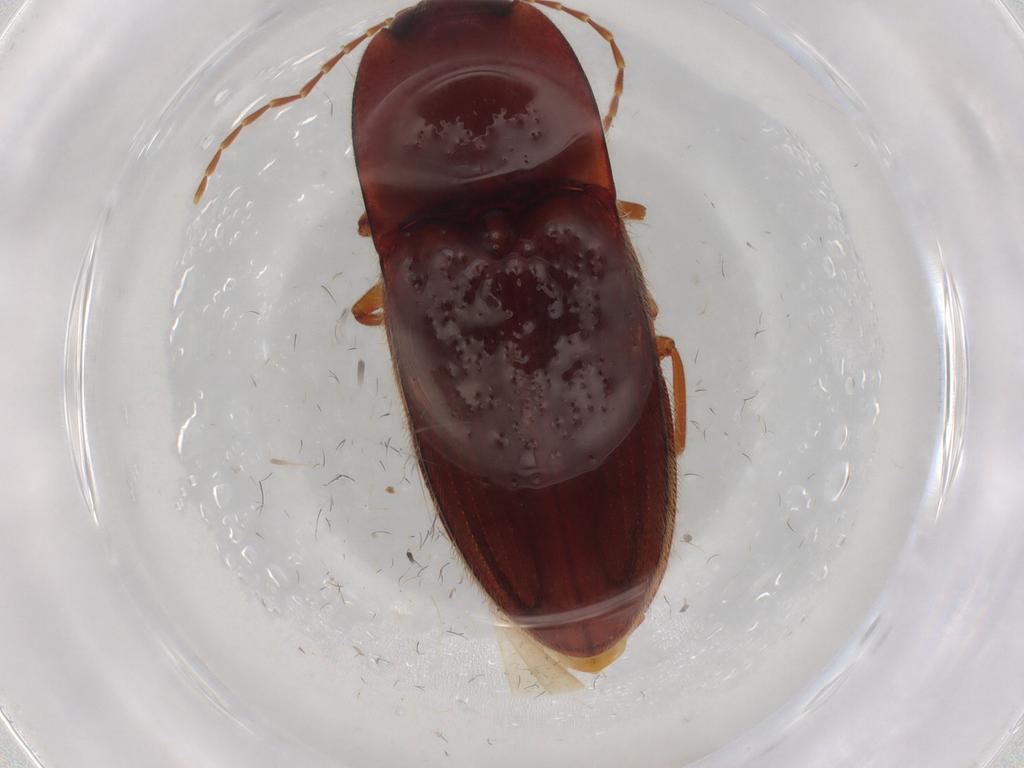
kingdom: Animalia
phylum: Arthropoda
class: Insecta
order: Coleoptera
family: Elateridae
